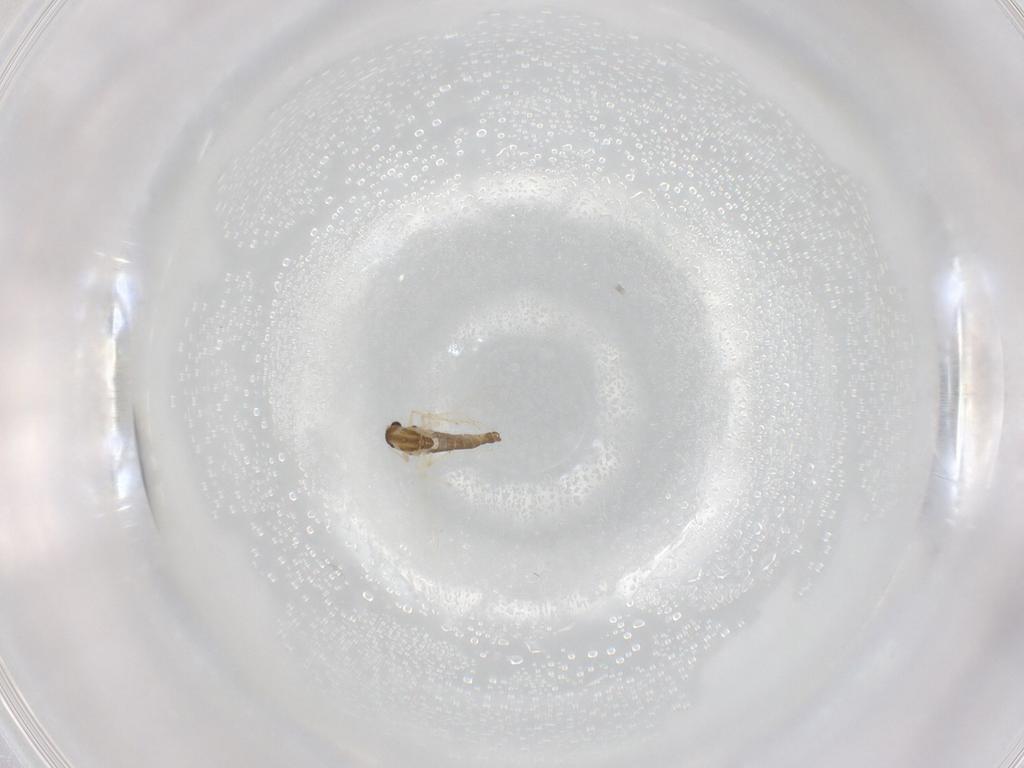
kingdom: Animalia
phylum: Arthropoda
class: Insecta
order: Diptera
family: Chironomidae
